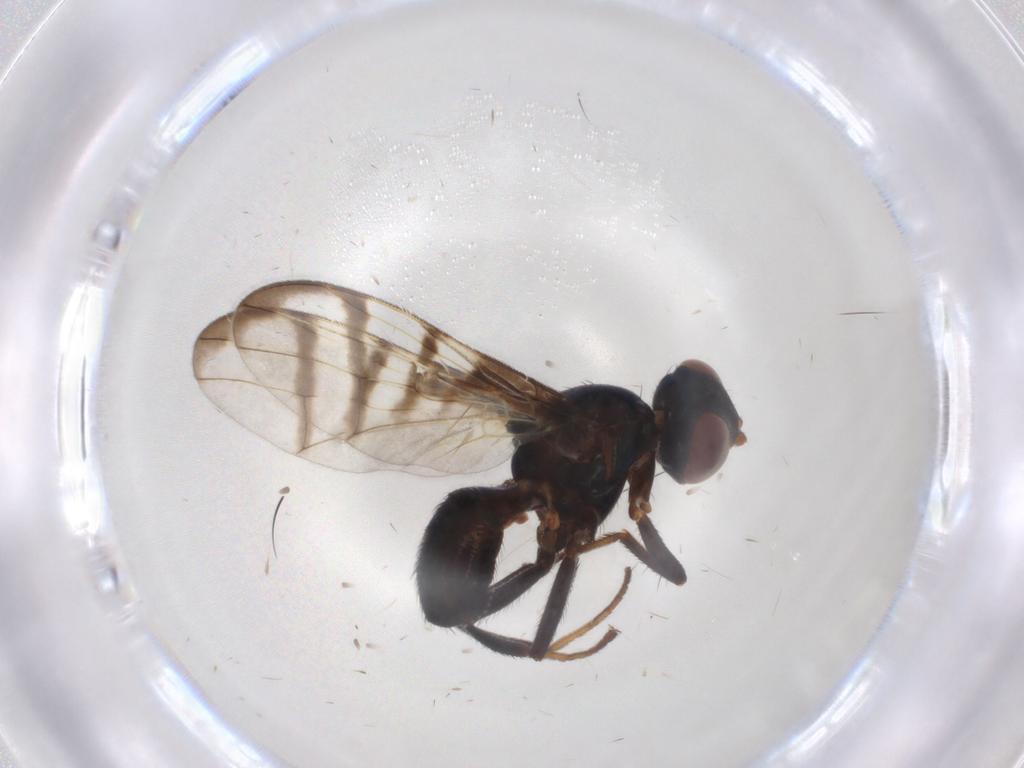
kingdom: Animalia
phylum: Arthropoda
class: Insecta
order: Diptera
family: Platystomatidae
